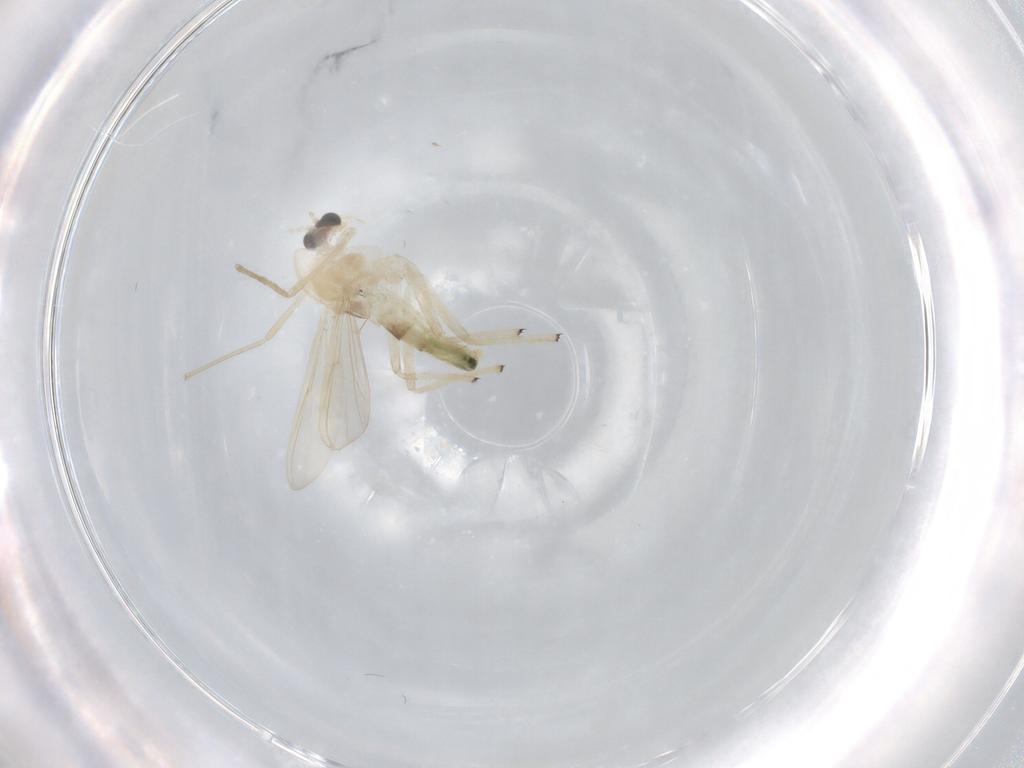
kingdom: Animalia
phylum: Arthropoda
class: Insecta
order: Diptera
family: Chironomidae
